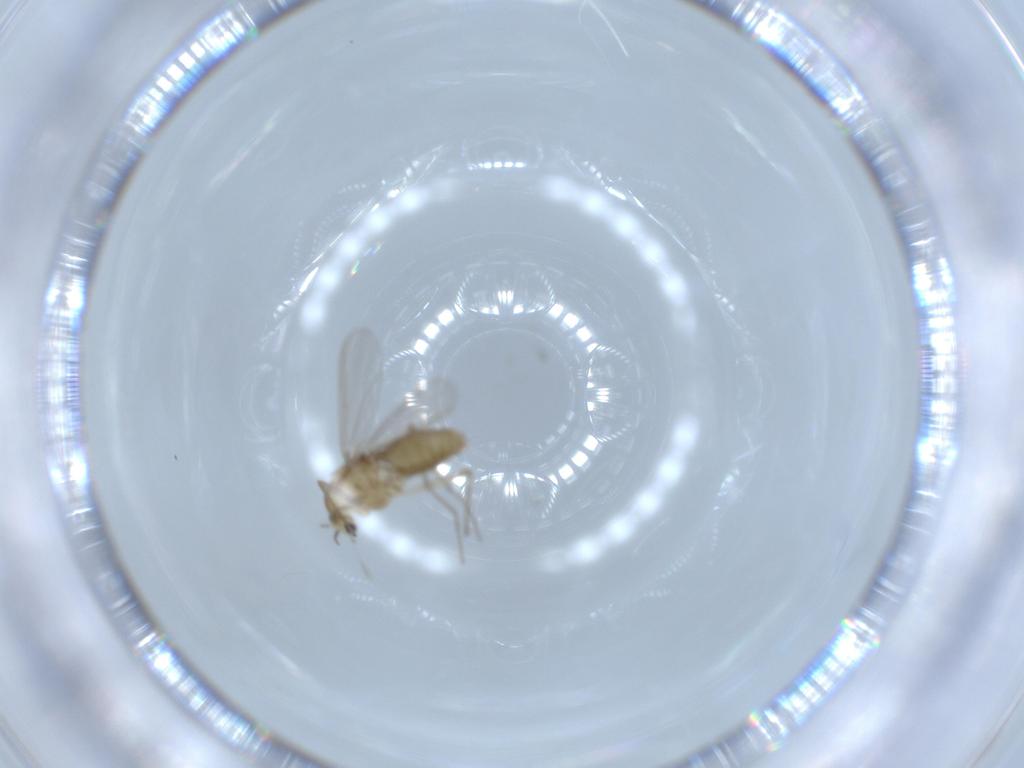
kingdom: Animalia
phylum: Arthropoda
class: Insecta
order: Diptera
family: Chironomidae
